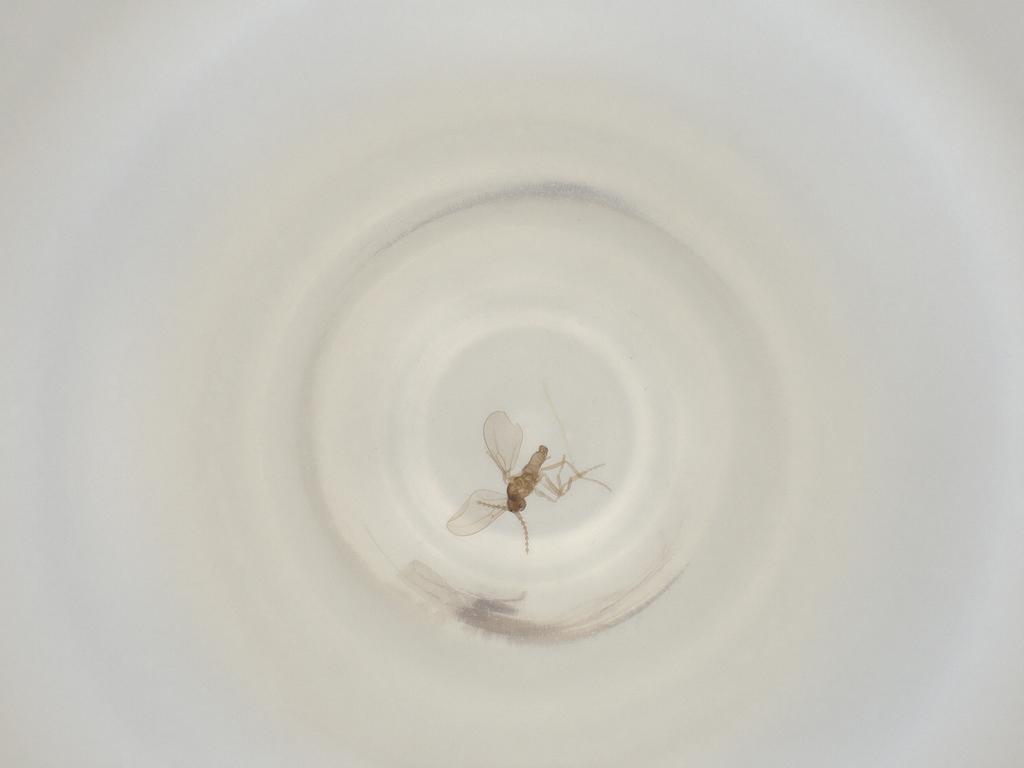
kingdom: Animalia
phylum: Arthropoda
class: Insecta
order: Diptera
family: Cecidomyiidae
